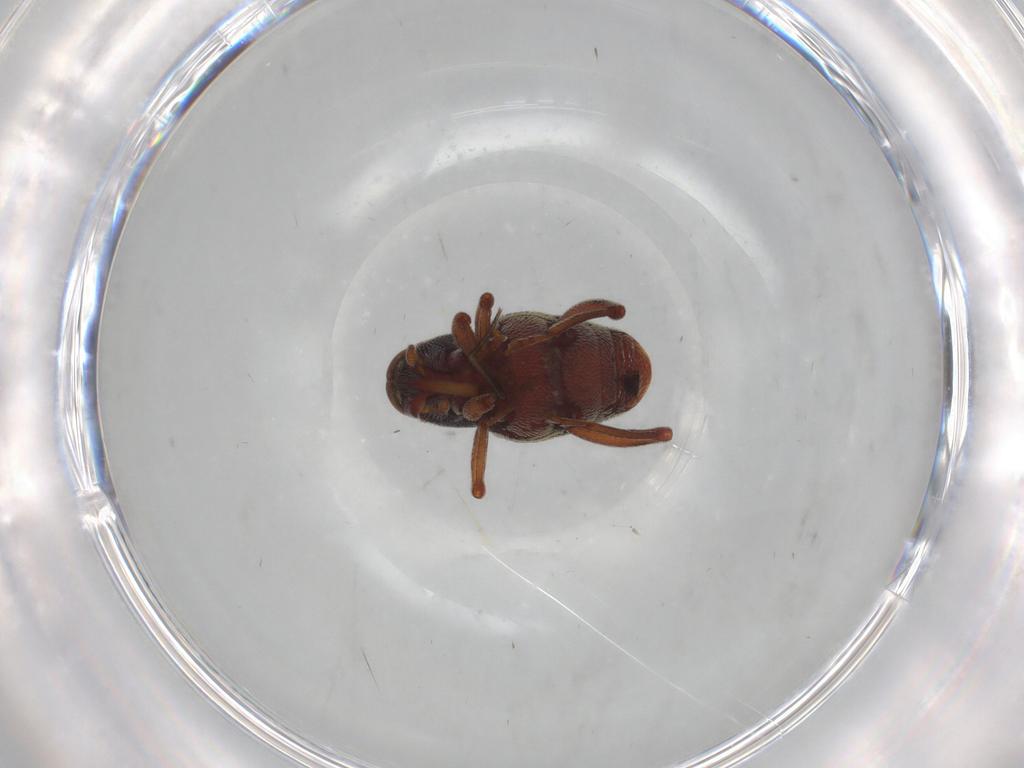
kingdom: Animalia
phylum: Arthropoda
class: Insecta
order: Coleoptera
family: Curculionidae
